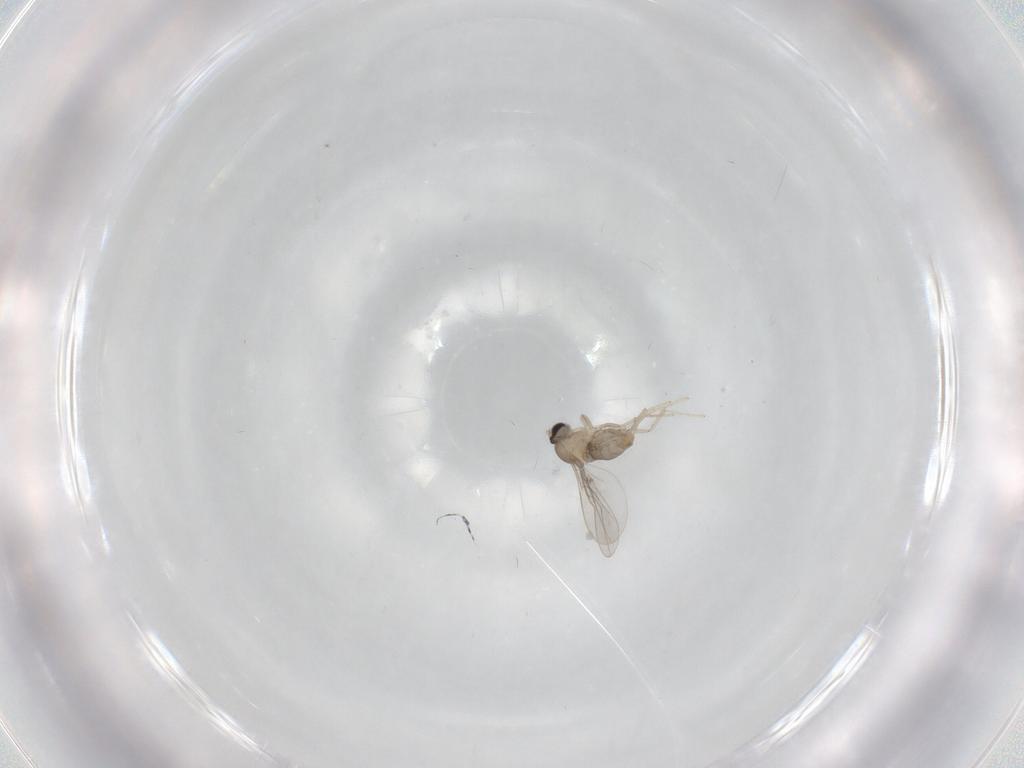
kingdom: Animalia
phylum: Arthropoda
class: Insecta
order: Diptera
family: Cecidomyiidae
